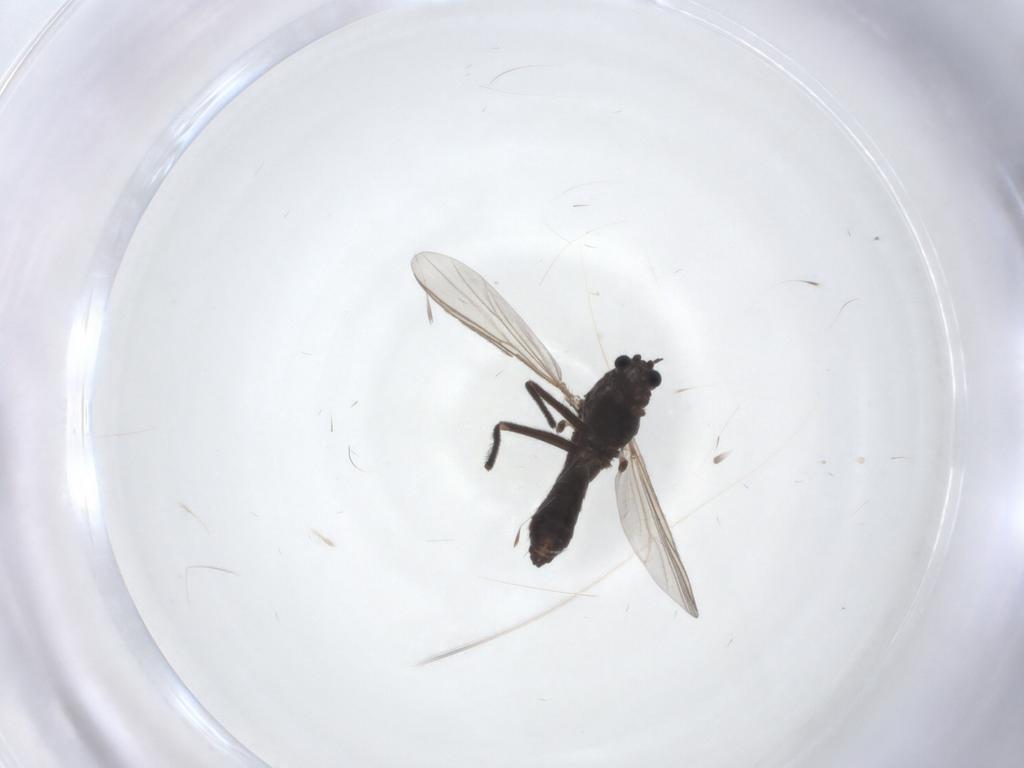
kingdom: Animalia
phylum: Arthropoda
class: Insecta
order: Diptera
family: Chironomidae
